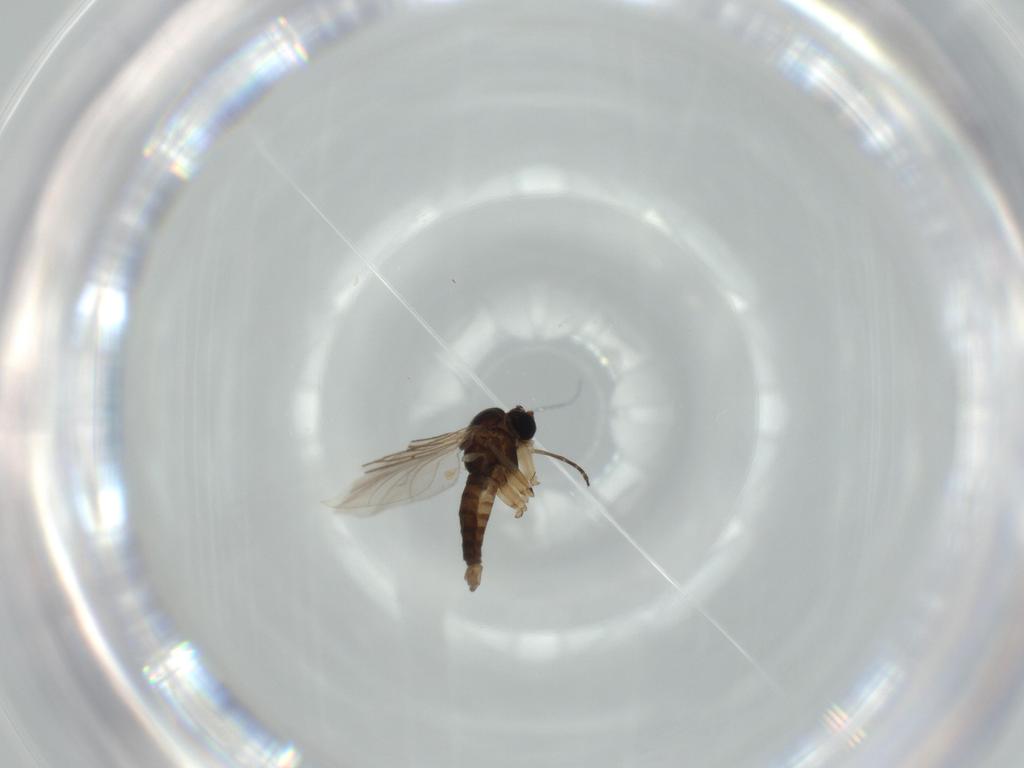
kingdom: Animalia
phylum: Arthropoda
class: Insecta
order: Diptera
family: Sciaridae
